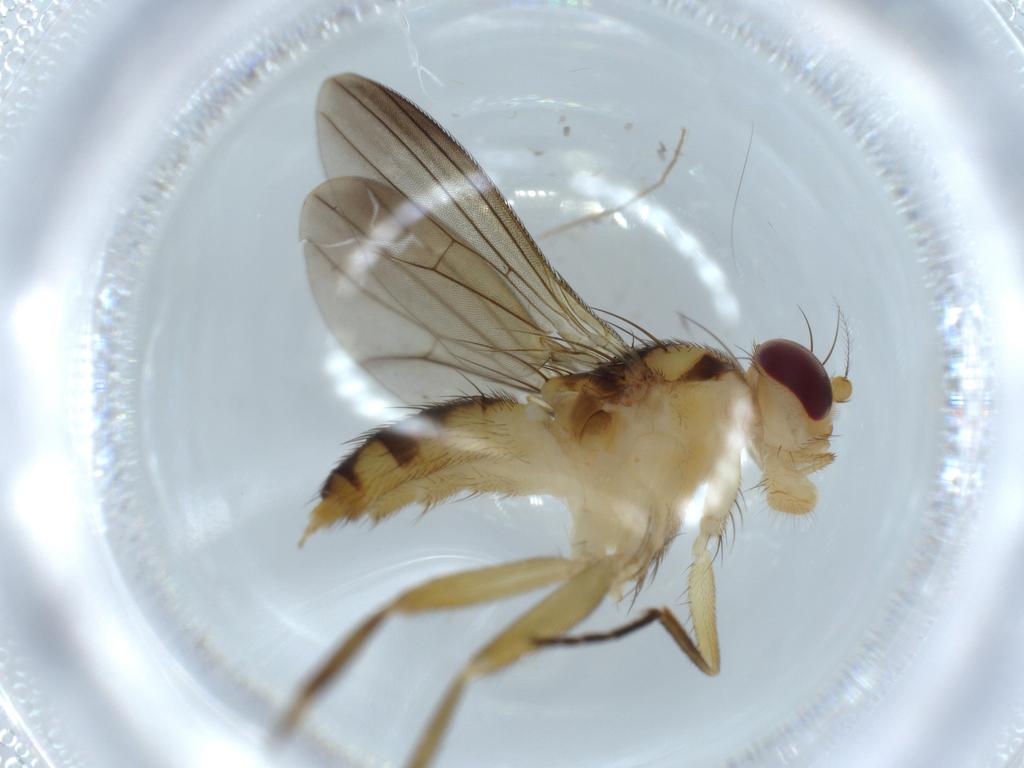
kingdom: Animalia
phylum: Arthropoda
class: Insecta
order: Diptera
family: Clusiidae
